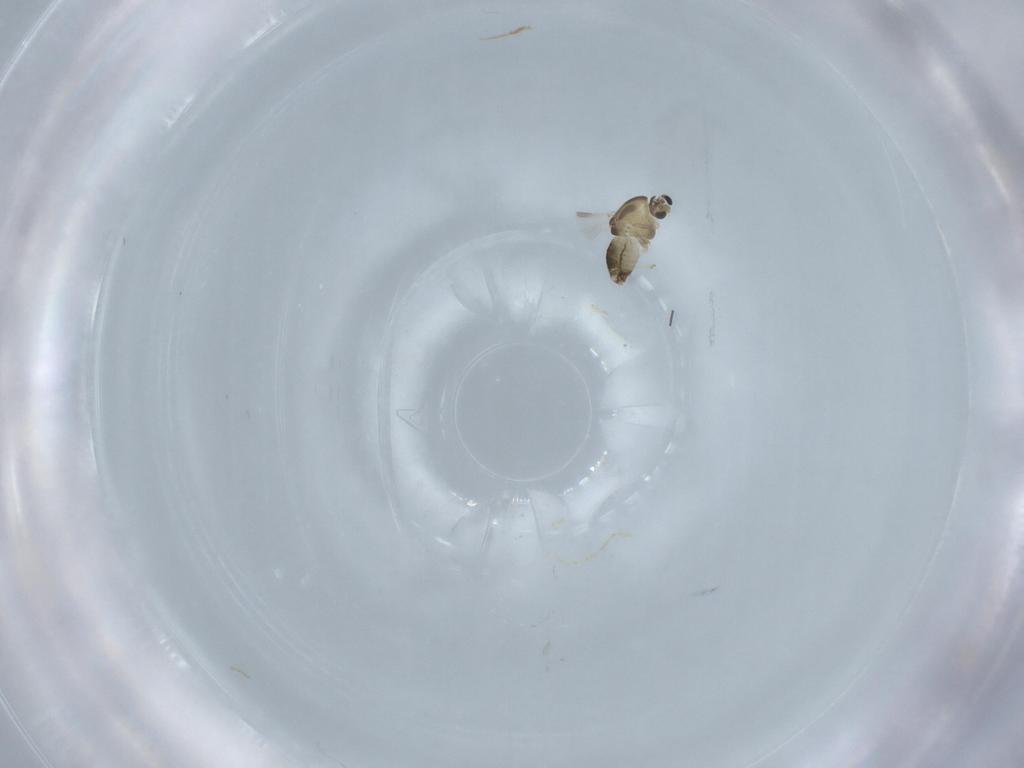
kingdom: Animalia
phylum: Arthropoda
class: Insecta
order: Diptera
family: Chironomidae
